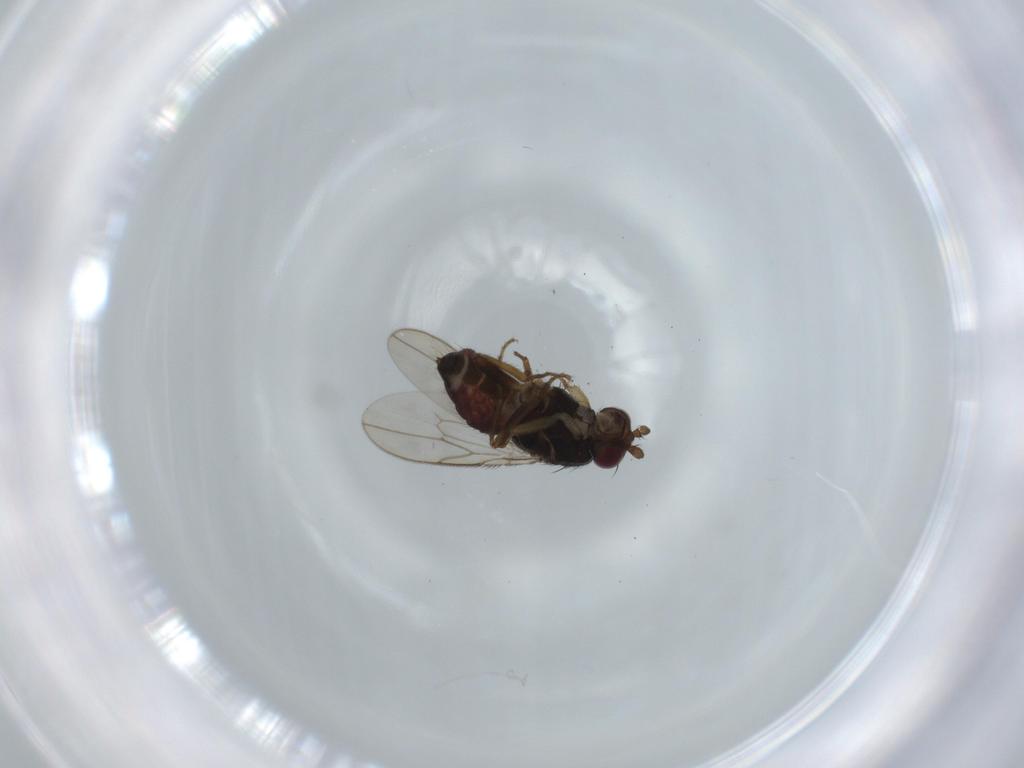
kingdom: Animalia
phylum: Arthropoda
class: Insecta
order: Diptera
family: Sphaeroceridae
